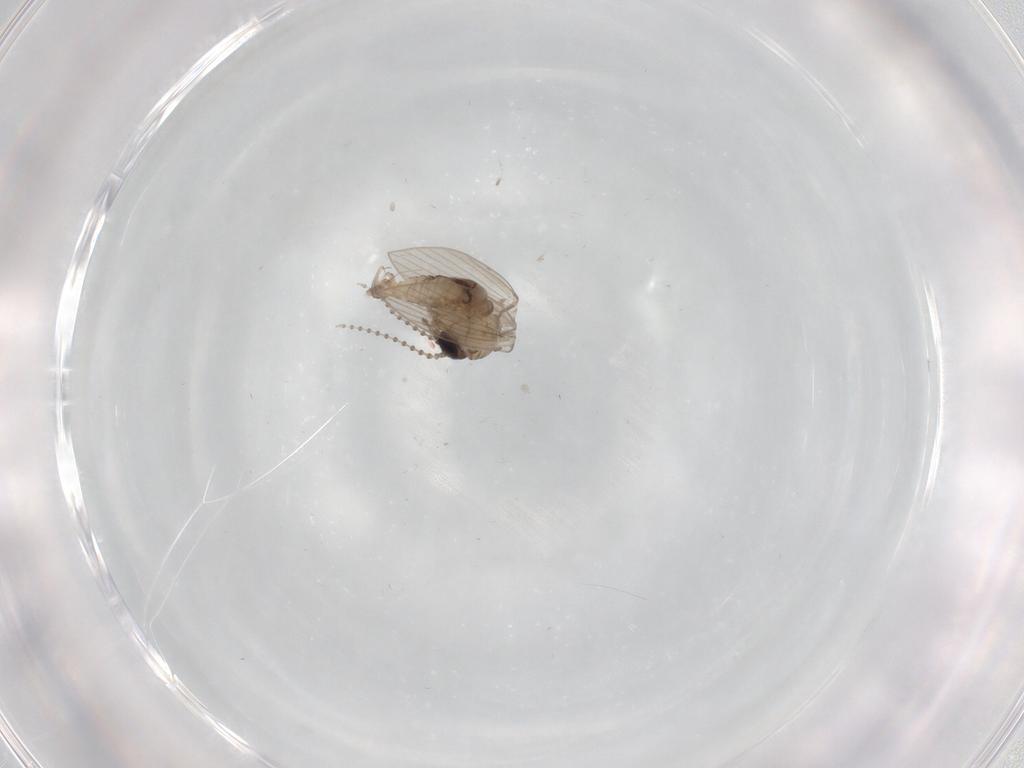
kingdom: Animalia
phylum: Arthropoda
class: Insecta
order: Diptera
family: Psychodidae
